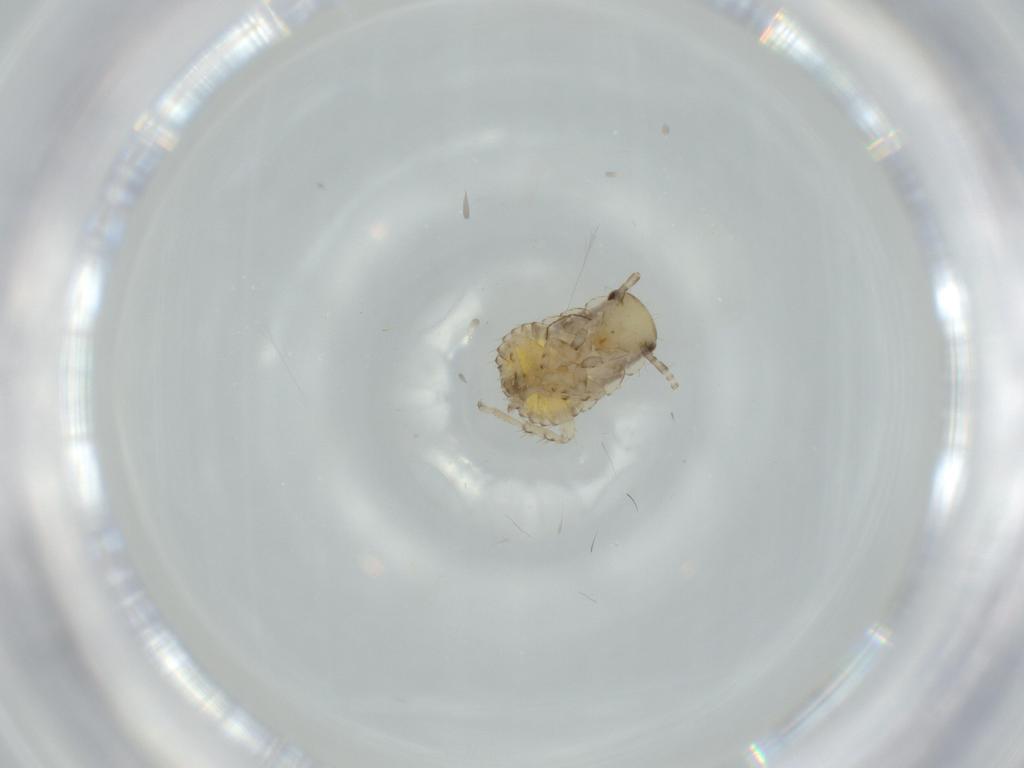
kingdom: Animalia
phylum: Arthropoda
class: Insecta
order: Blattodea
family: Ectobiidae
